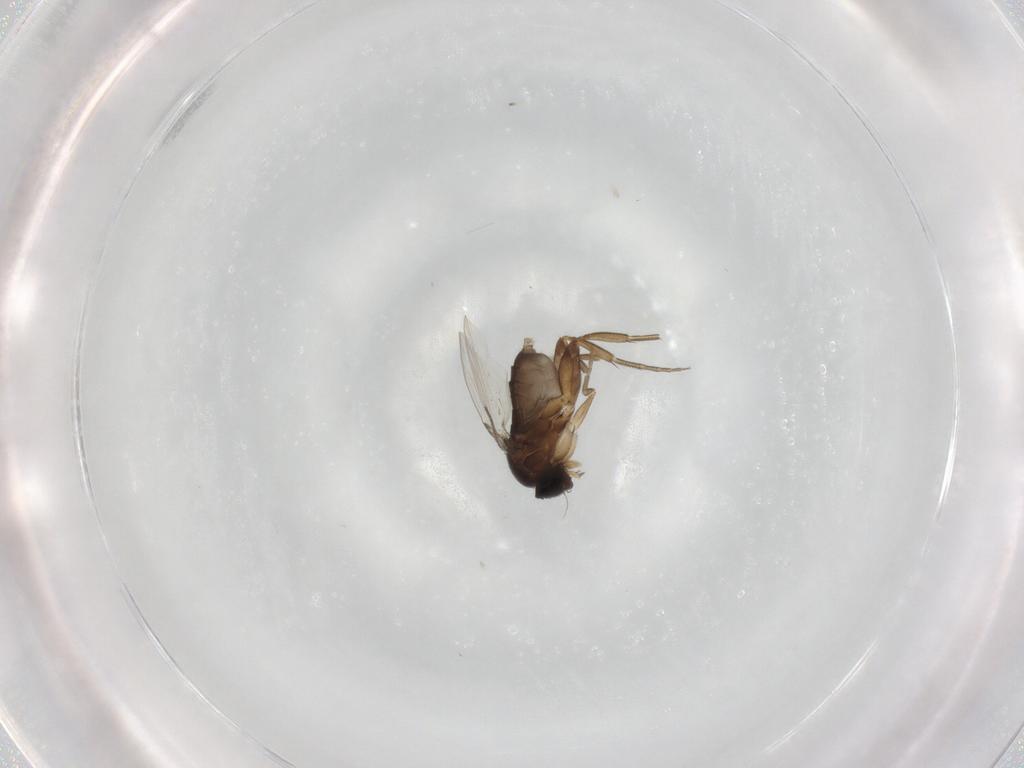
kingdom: Animalia
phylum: Arthropoda
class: Insecta
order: Diptera
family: Phoridae
